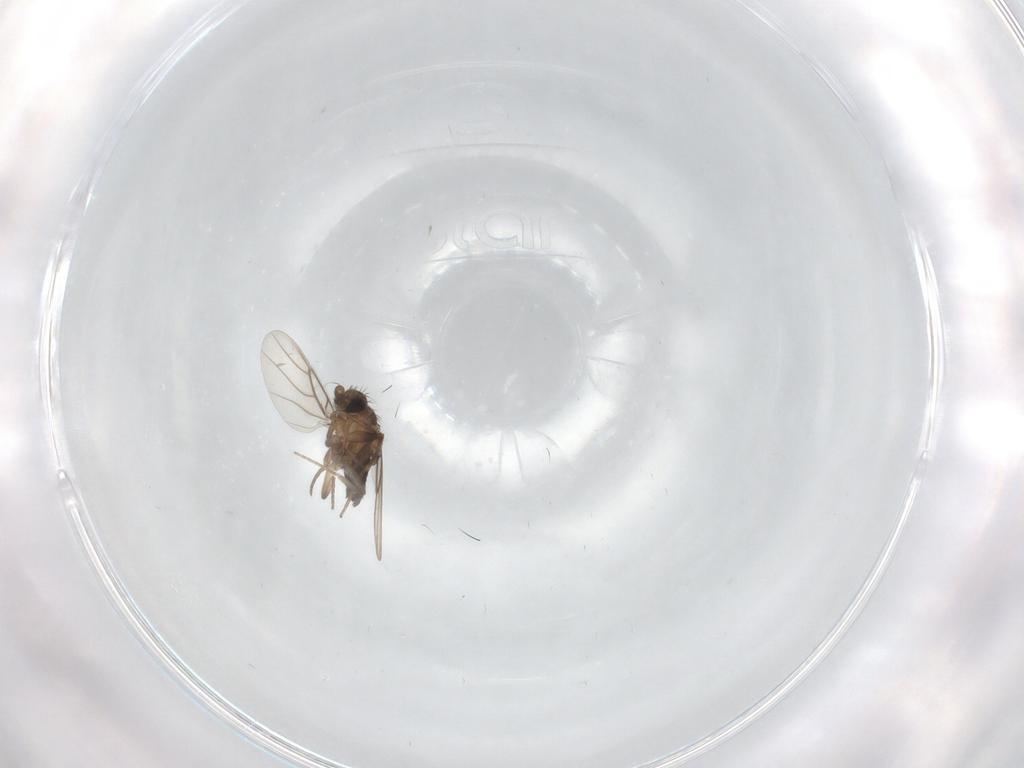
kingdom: Animalia
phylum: Arthropoda
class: Insecta
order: Diptera
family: Phoridae
